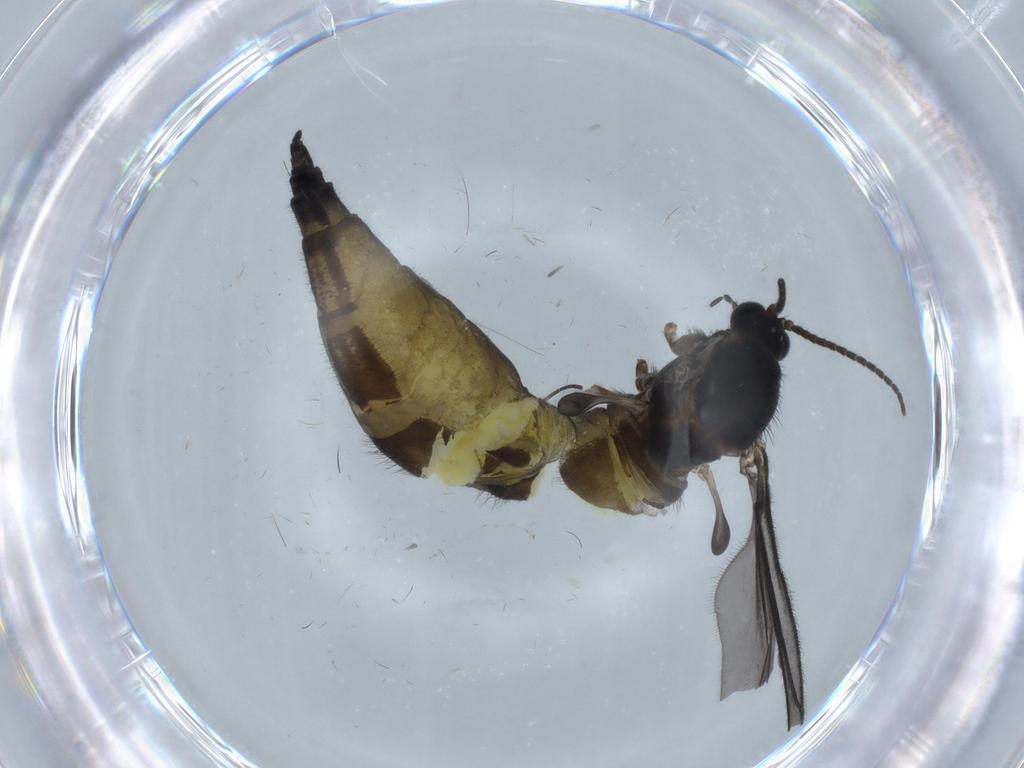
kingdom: Animalia
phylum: Arthropoda
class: Insecta
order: Diptera
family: Sciaridae
